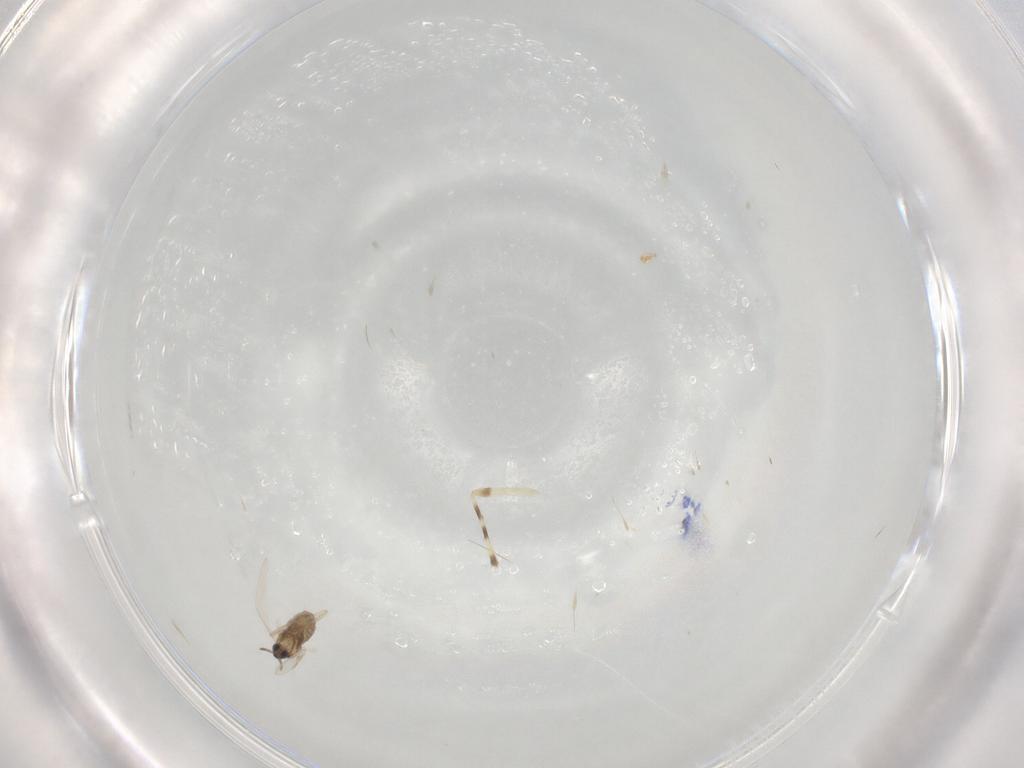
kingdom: Animalia
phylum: Arthropoda
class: Insecta
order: Diptera
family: Cecidomyiidae
